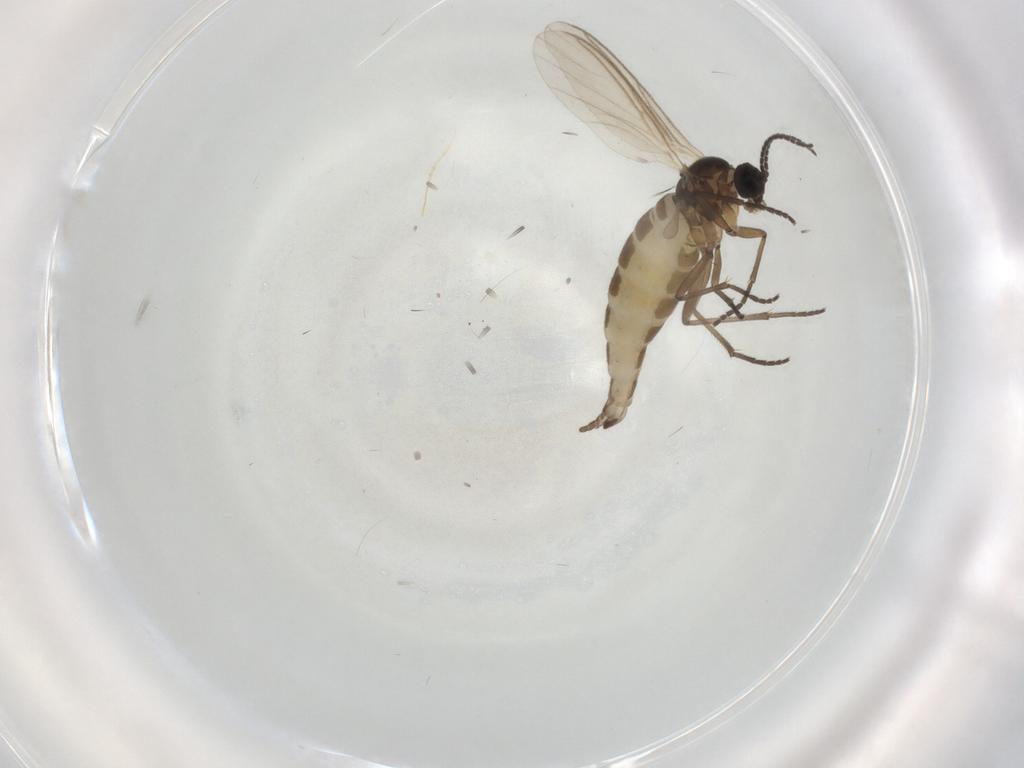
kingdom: Animalia
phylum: Arthropoda
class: Insecta
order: Diptera
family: Sciaridae
